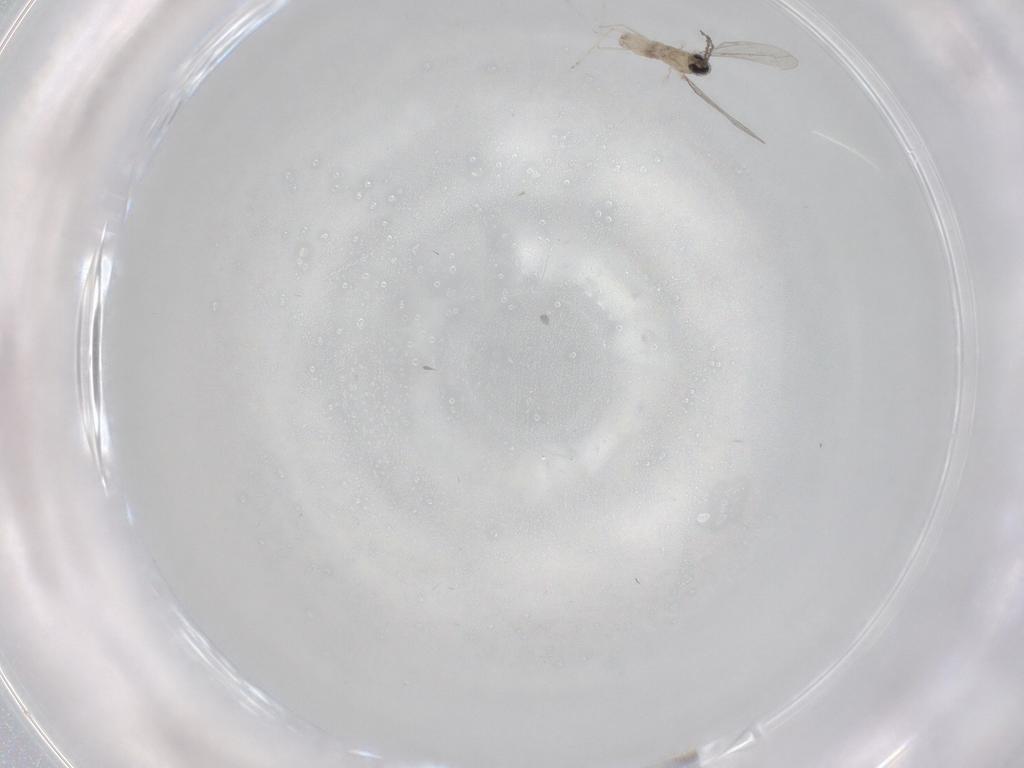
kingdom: Animalia
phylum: Arthropoda
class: Insecta
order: Diptera
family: Cecidomyiidae
